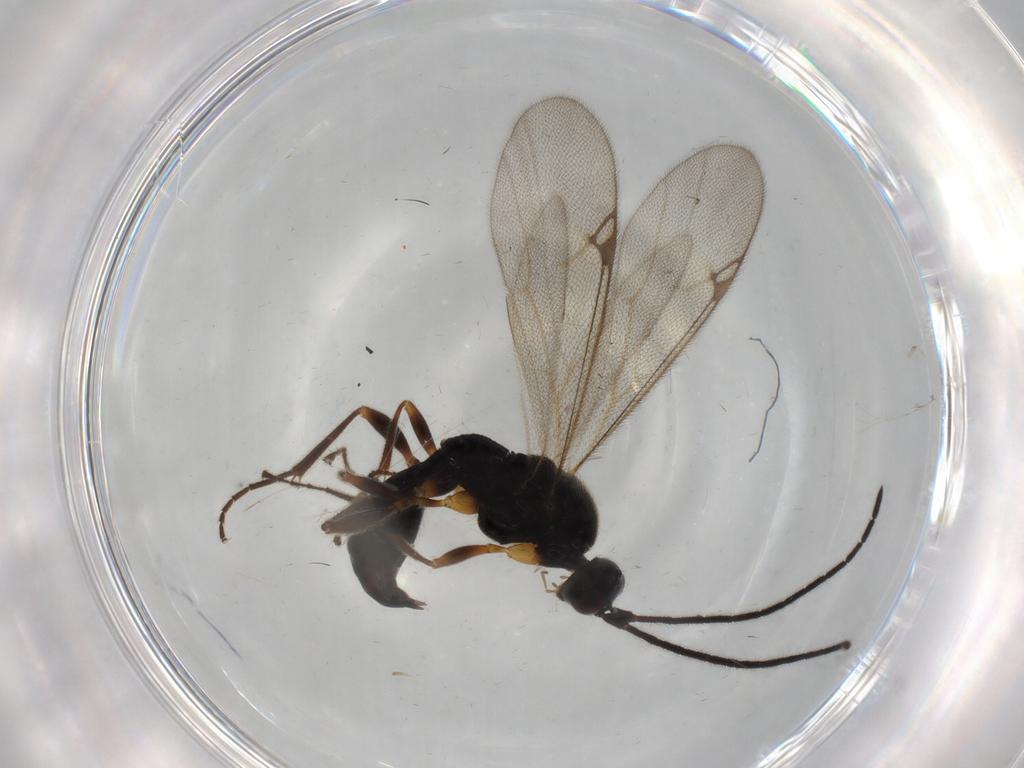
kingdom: Animalia
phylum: Arthropoda
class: Insecta
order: Hymenoptera
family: Proctotrupidae
